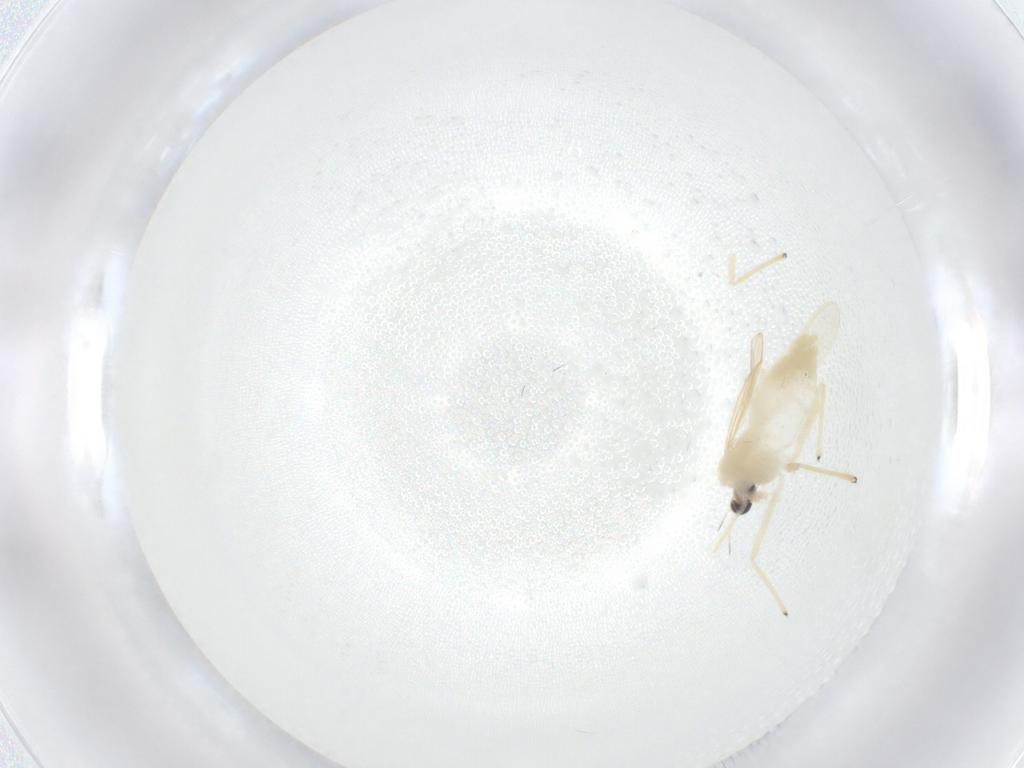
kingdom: Animalia
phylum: Arthropoda
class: Insecta
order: Diptera
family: Chironomidae
